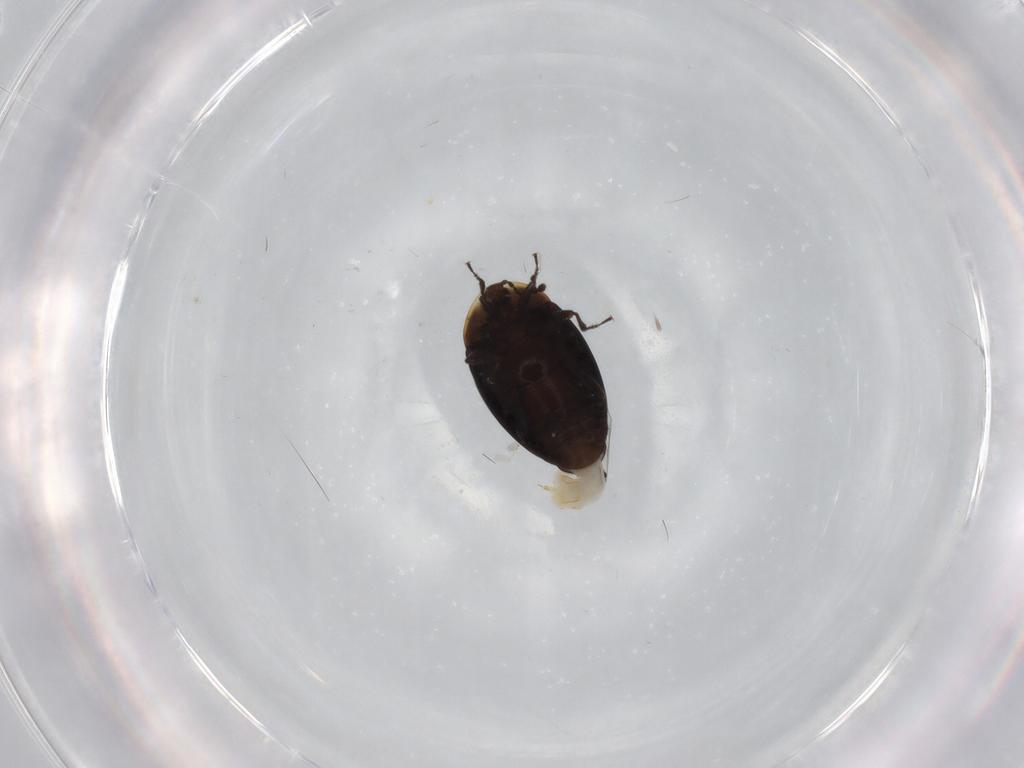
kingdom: Animalia
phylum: Arthropoda
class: Insecta
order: Coleoptera
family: Corylophidae
